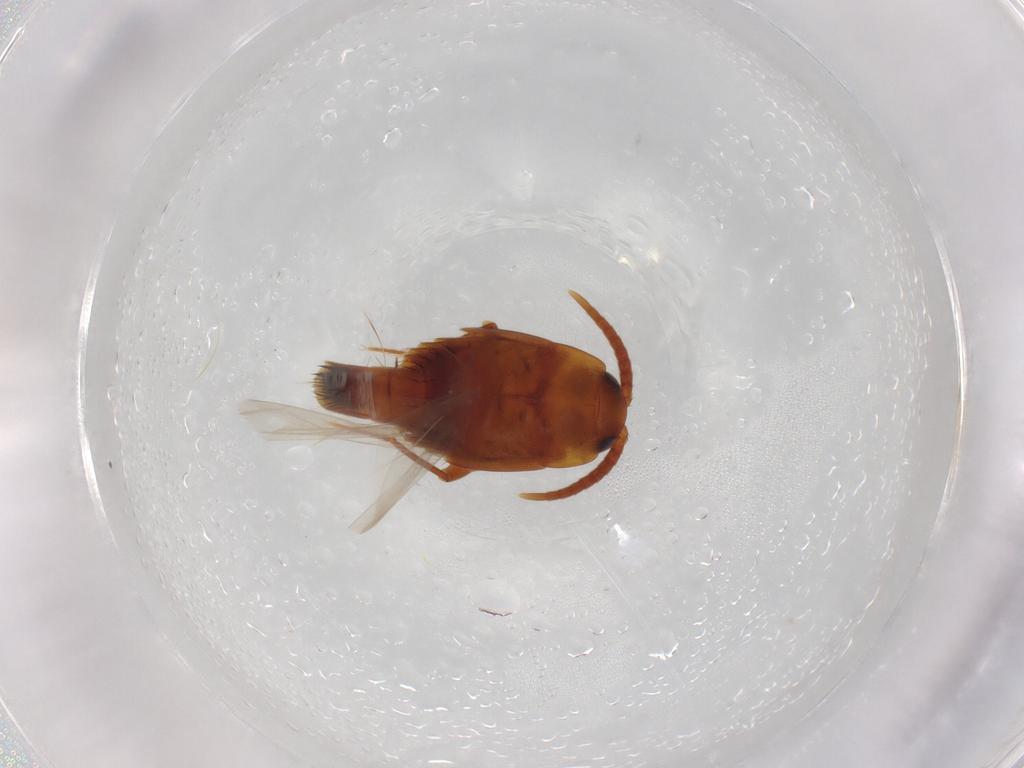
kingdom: Animalia
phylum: Arthropoda
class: Insecta
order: Coleoptera
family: Staphylinidae
